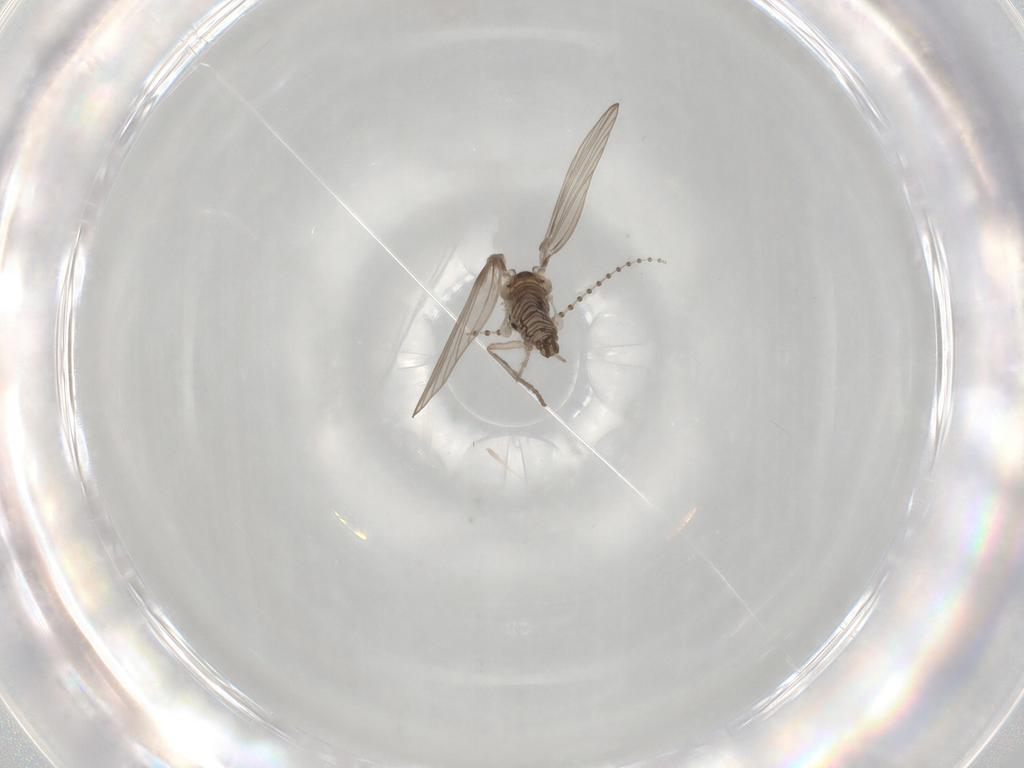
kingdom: Animalia
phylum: Arthropoda
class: Insecta
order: Diptera
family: Psychodidae
